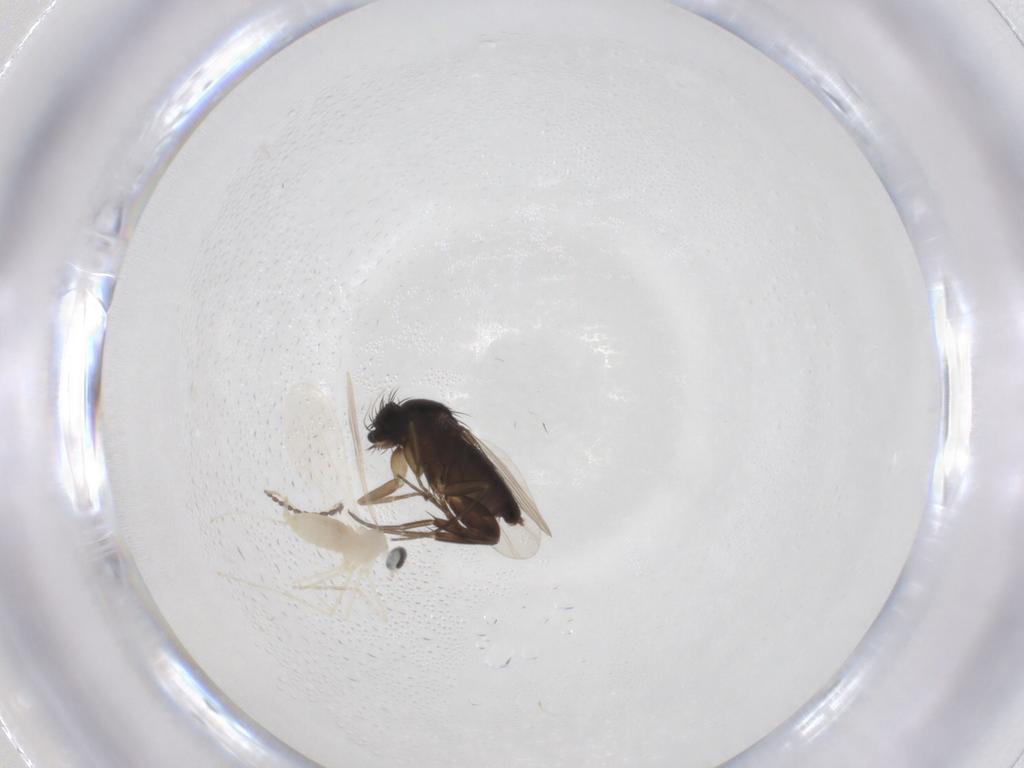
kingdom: Animalia
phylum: Arthropoda
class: Insecta
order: Diptera
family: Phoridae
